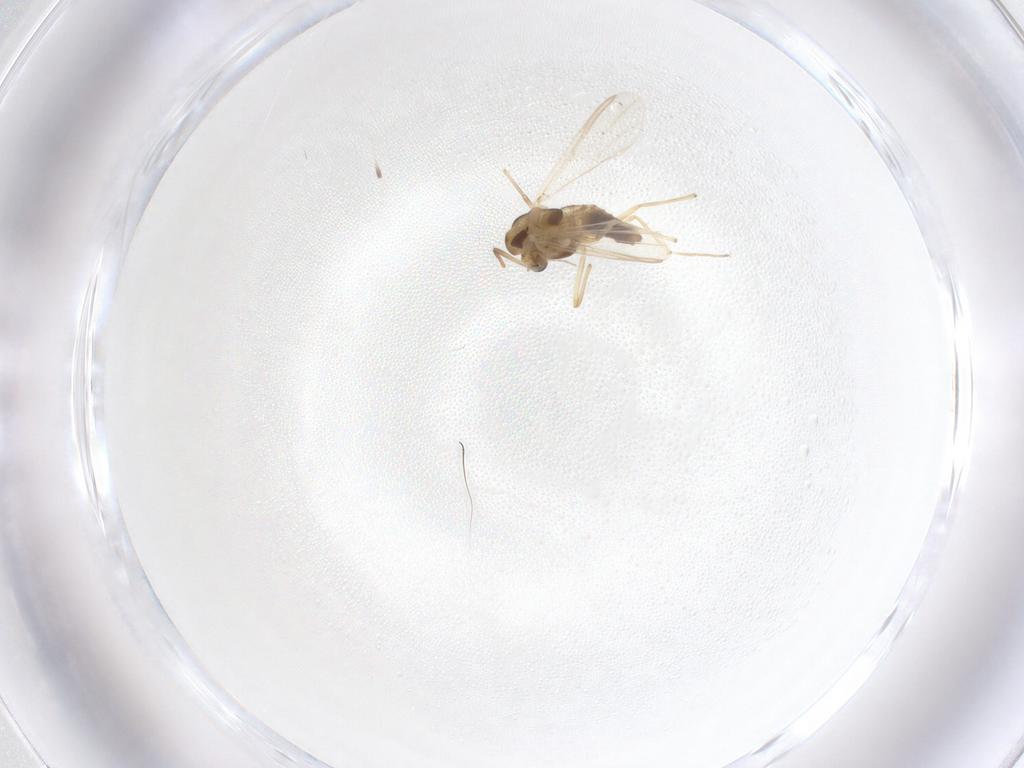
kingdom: Animalia
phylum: Arthropoda
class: Insecta
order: Diptera
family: Chironomidae
